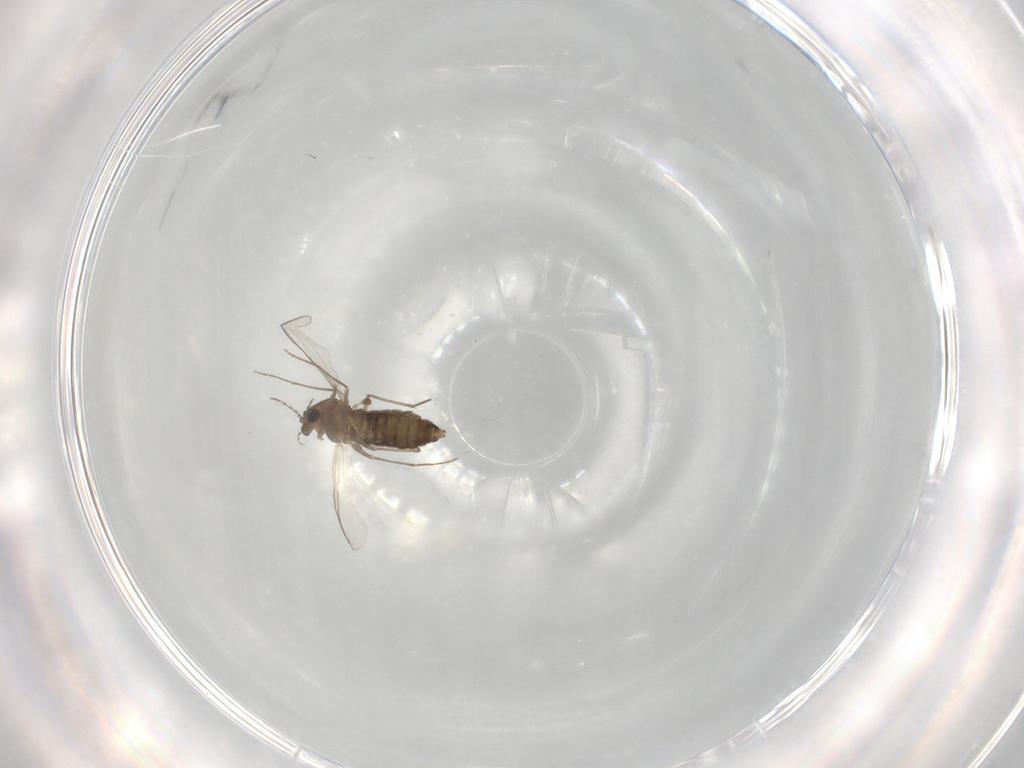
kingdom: Animalia
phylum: Arthropoda
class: Insecta
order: Diptera
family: Chironomidae
